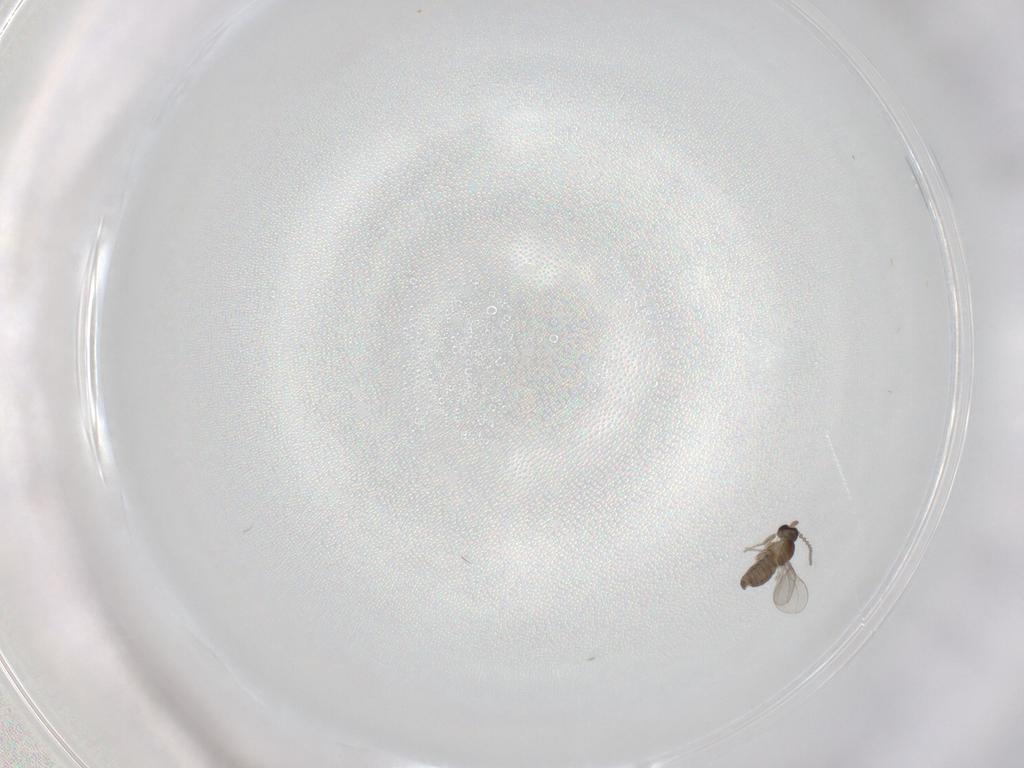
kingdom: Animalia
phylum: Arthropoda
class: Insecta
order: Diptera
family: Cecidomyiidae
